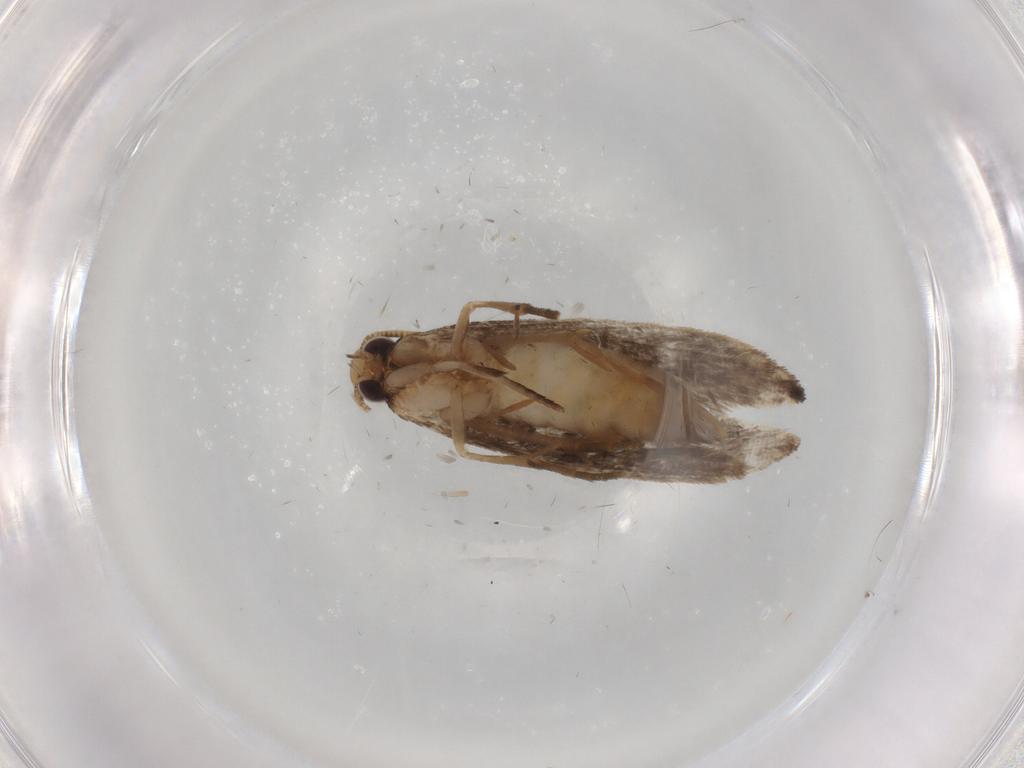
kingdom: Animalia
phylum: Arthropoda
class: Insecta
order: Lepidoptera
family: Tineidae
